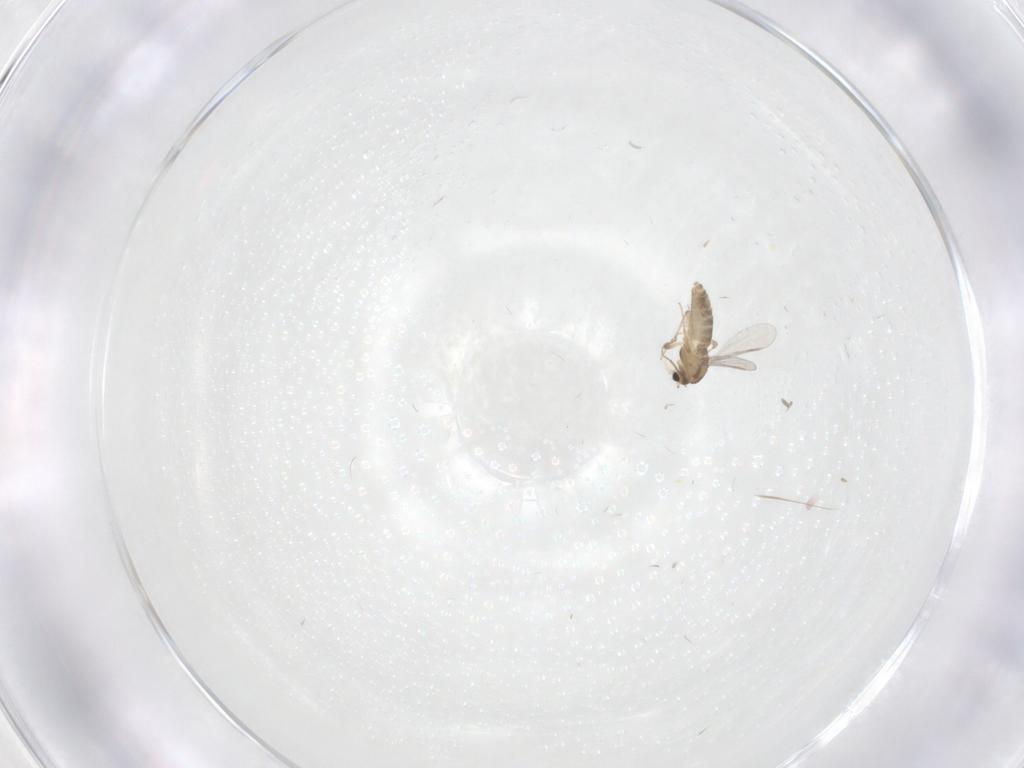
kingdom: Animalia
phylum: Arthropoda
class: Insecta
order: Diptera
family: Chironomidae
